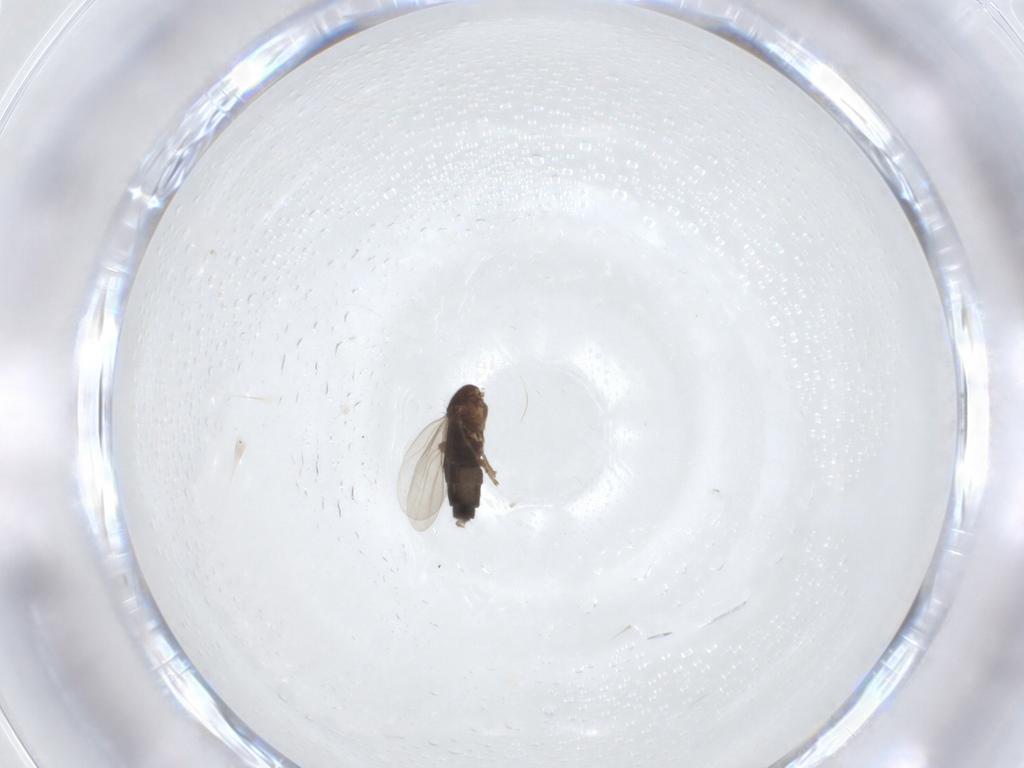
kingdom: Animalia
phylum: Arthropoda
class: Insecta
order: Diptera
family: Phoridae
